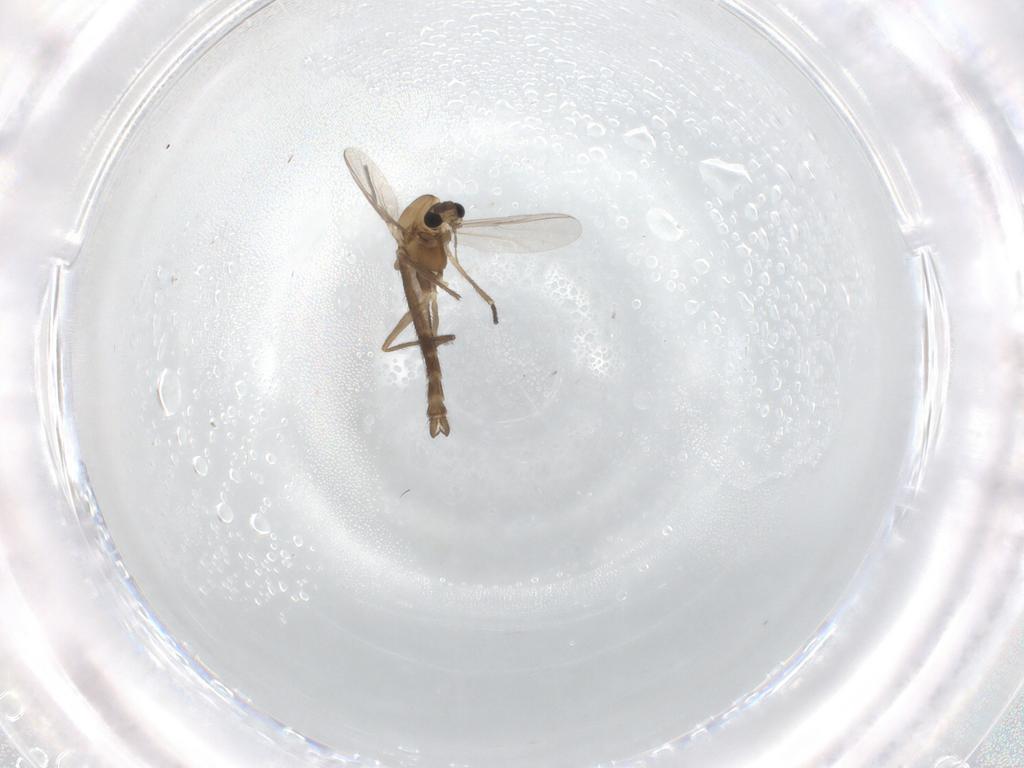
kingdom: Animalia
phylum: Arthropoda
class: Insecta
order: Diptera
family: Chironomidae
